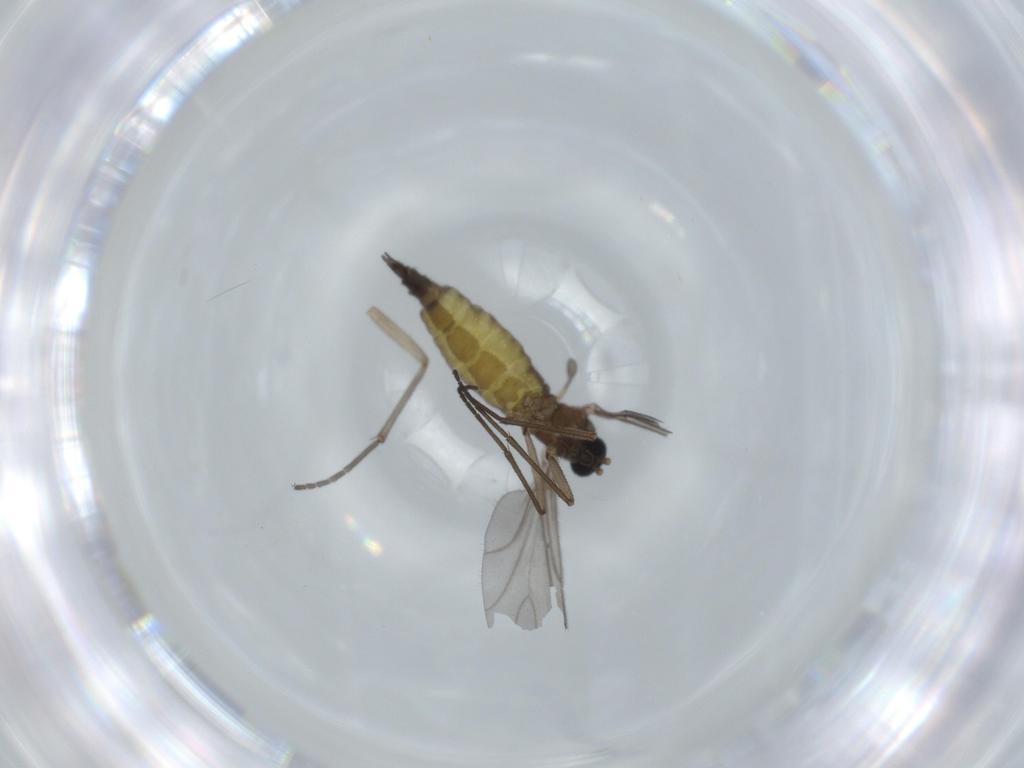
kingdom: Animalia
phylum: Arthropoda
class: Insecta
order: Diptera
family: Sciaridae
